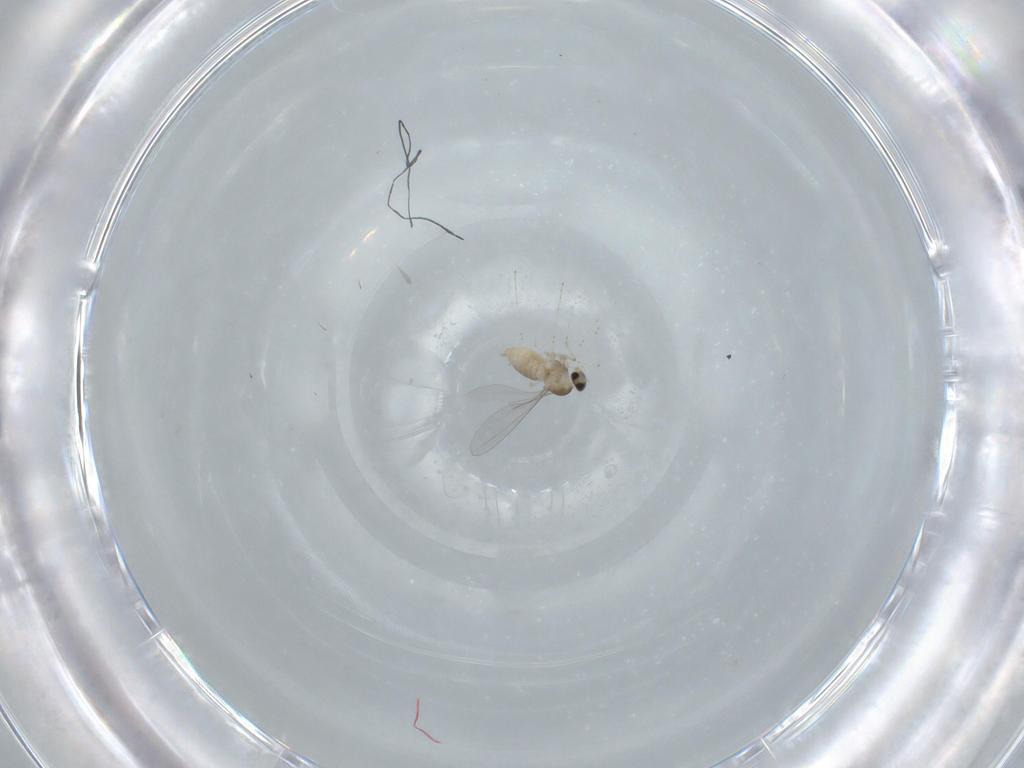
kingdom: Animalia
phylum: Arthropoda
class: Insecta
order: Diptera
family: Cecidomyiidae
